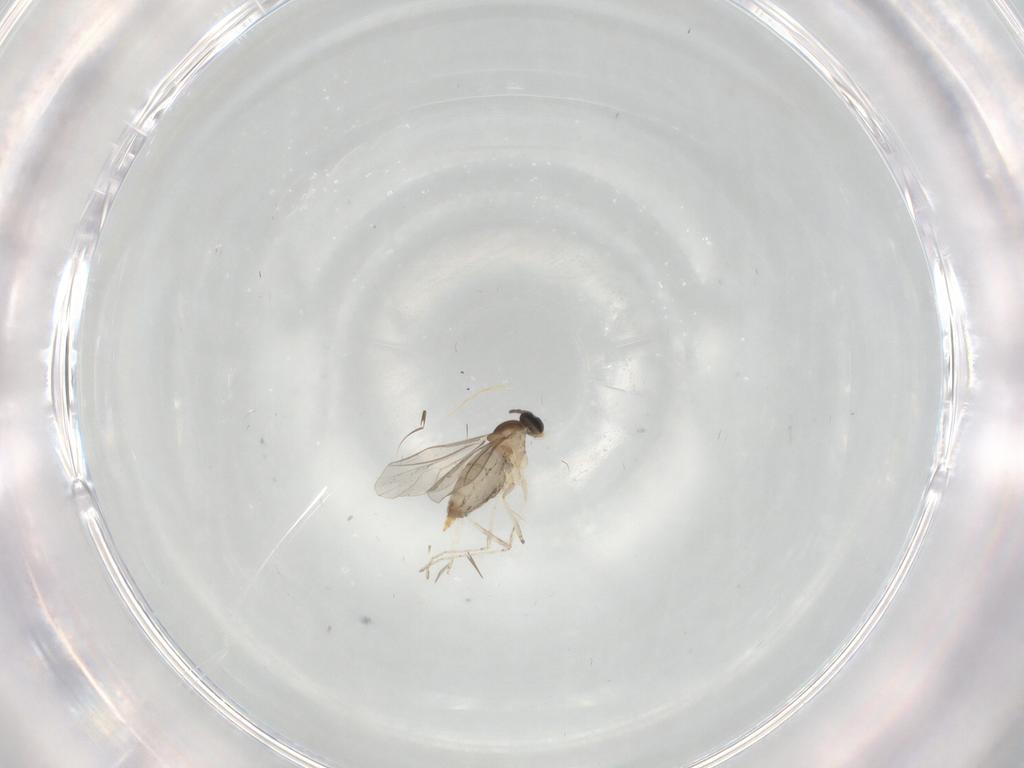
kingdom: Animalia
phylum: Arthropoda
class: Insecta
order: Diptera
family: Cecidomyiidae
